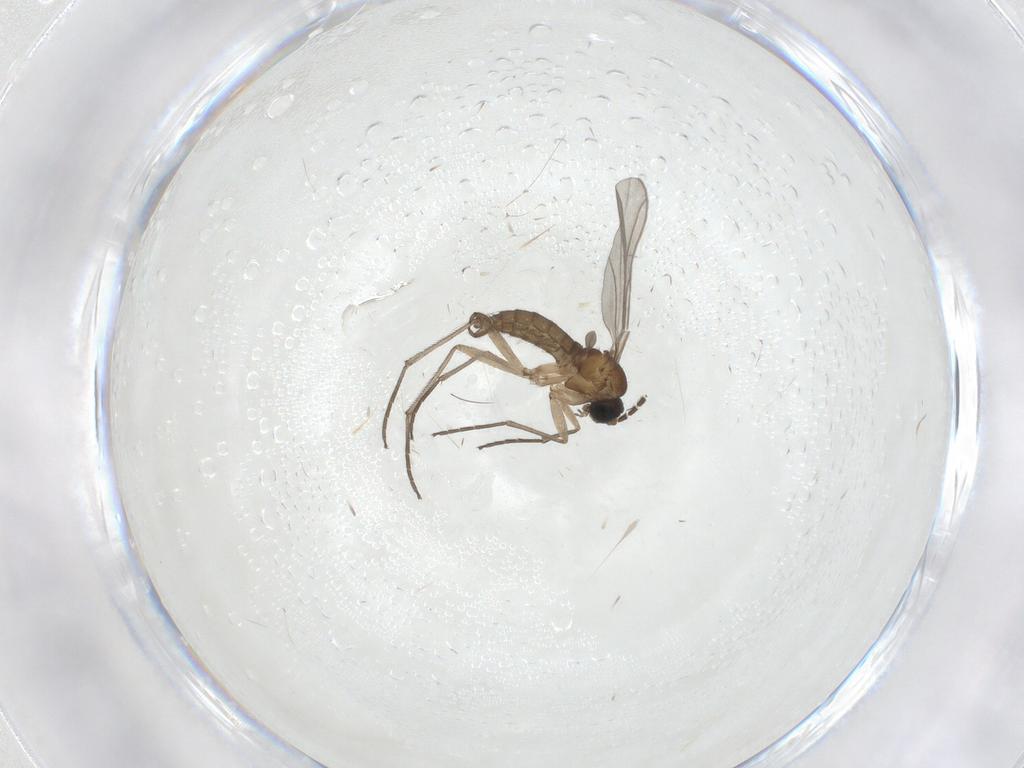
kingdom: Animalia
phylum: Arthropoda
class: Insecta
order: Diptera
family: Sciaridae
